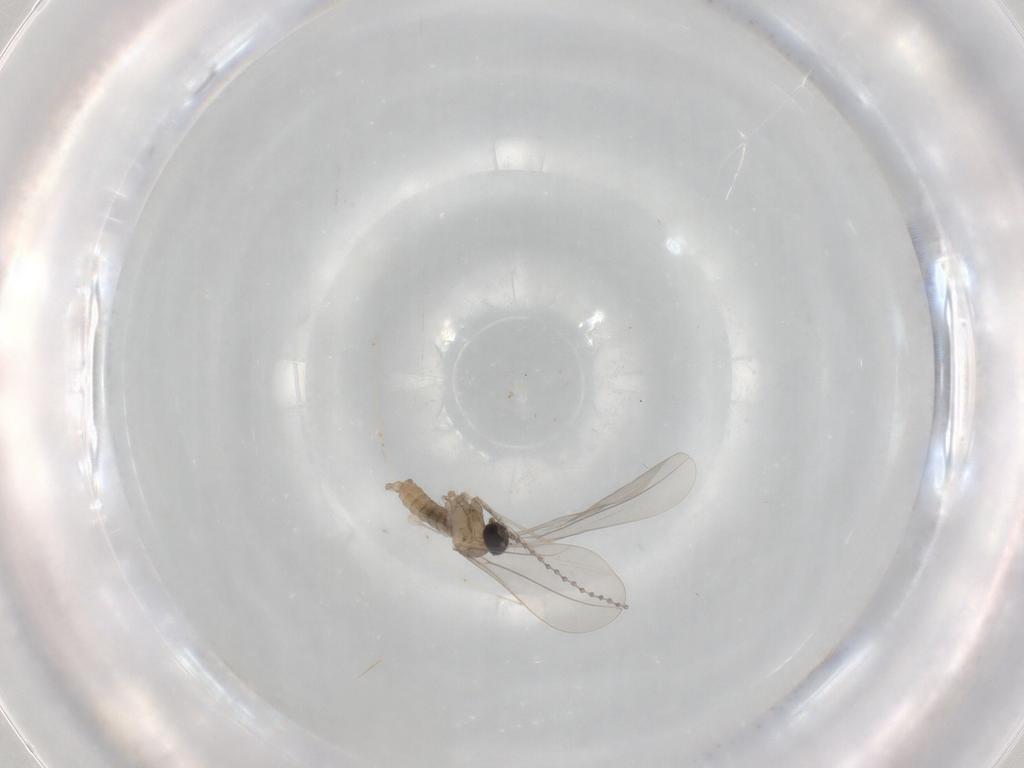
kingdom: Animalia
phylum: Arthropoda
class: Insecta
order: Diptera
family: Cecidomyiidae
